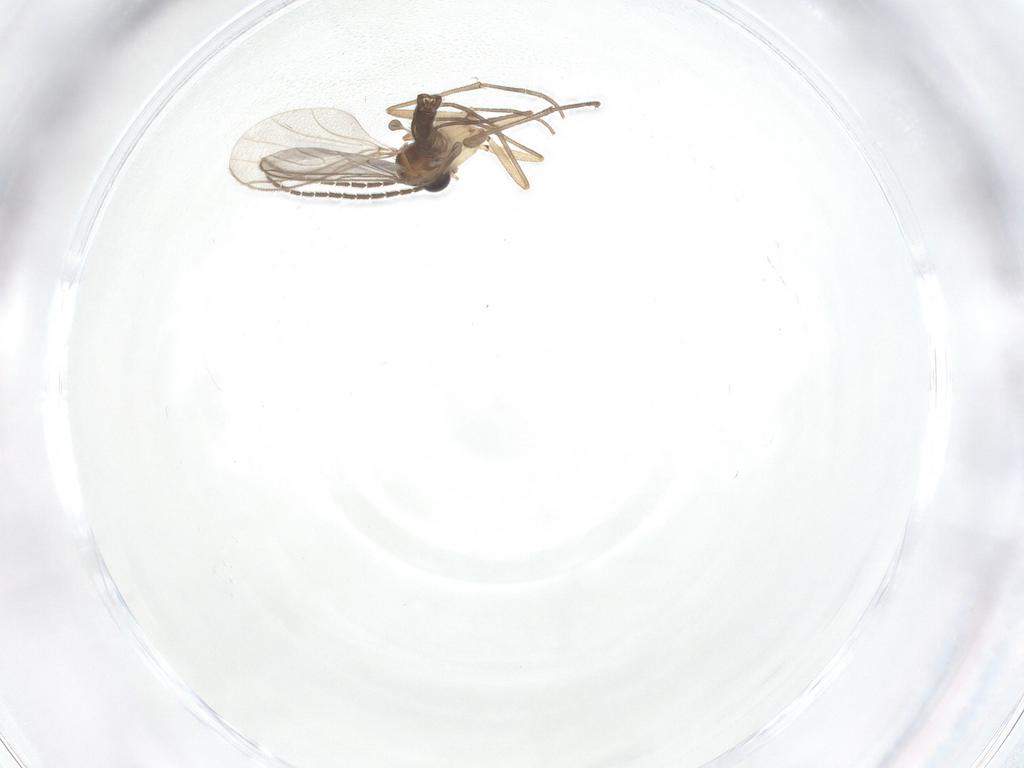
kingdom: Animalia
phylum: Arthropoda
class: Insecta
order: Diptera
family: Sciaridae
